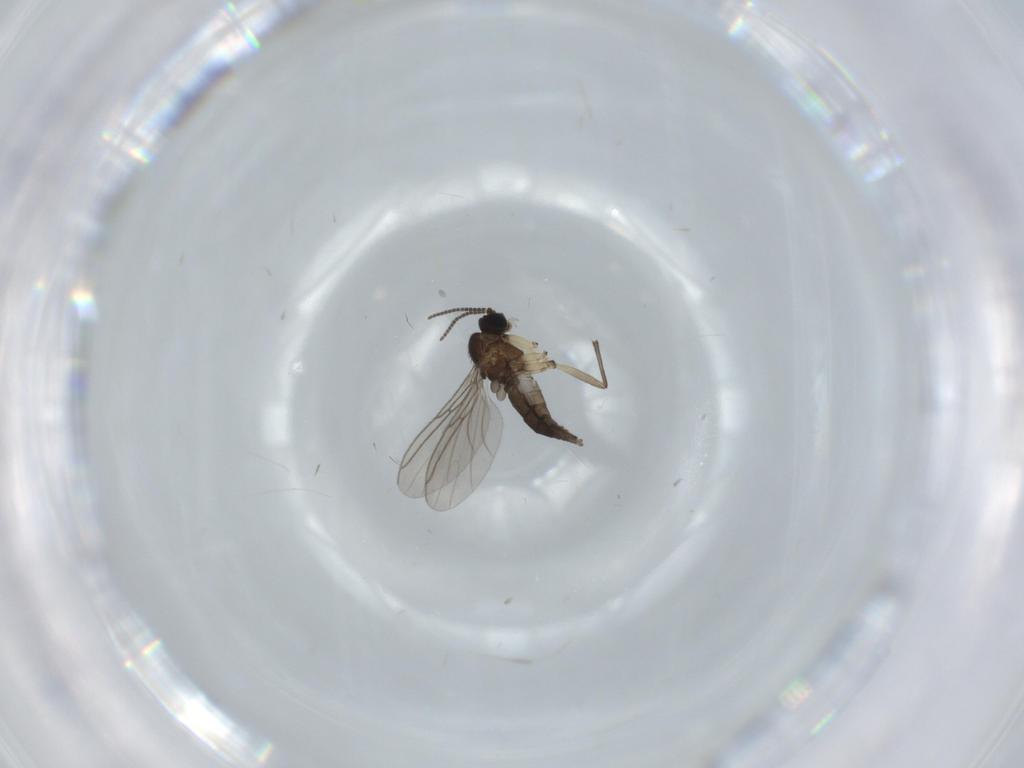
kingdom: Animalia
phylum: Arthropoda
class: Insecta
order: Diptera
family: Sciaridae
